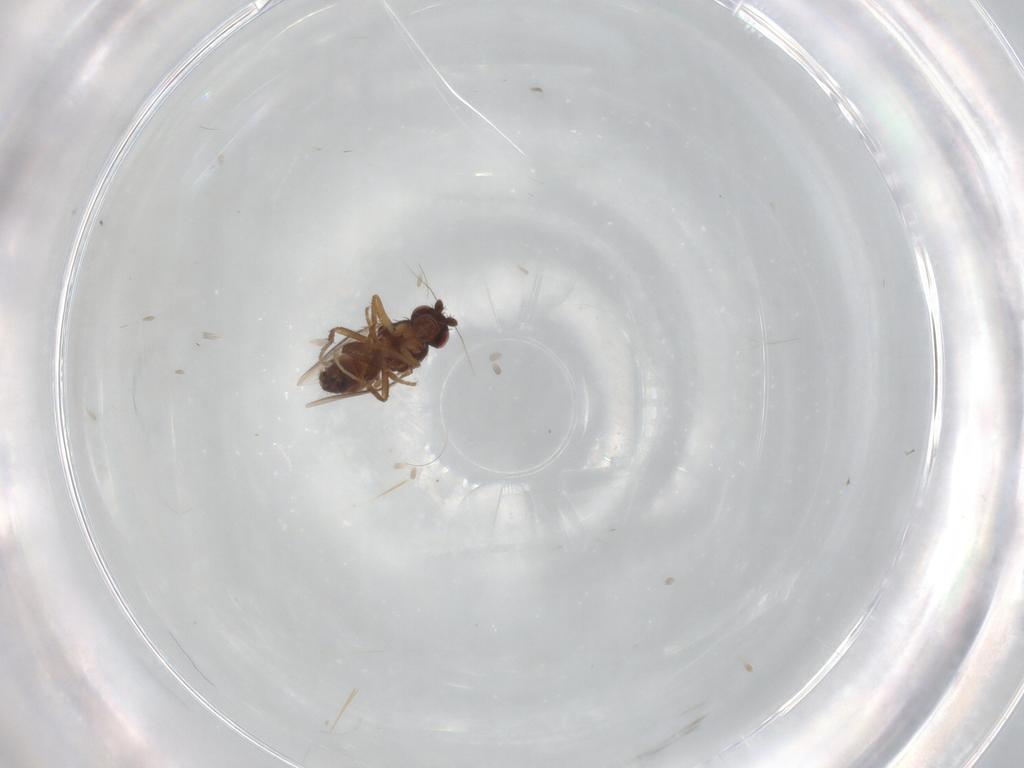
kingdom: Animalia
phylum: Arthropoda
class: Insecta
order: Diptera
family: Sphaeroceridae
